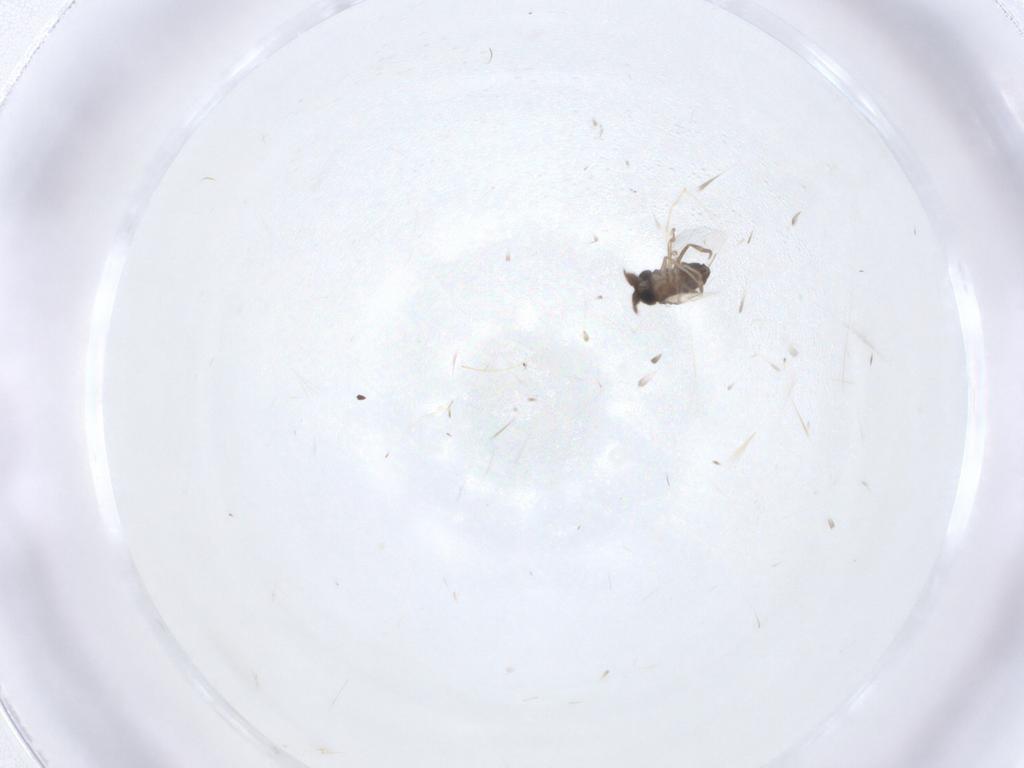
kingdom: Animalia
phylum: Arthropoda
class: Insecta
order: Diptera
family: Phoridae
